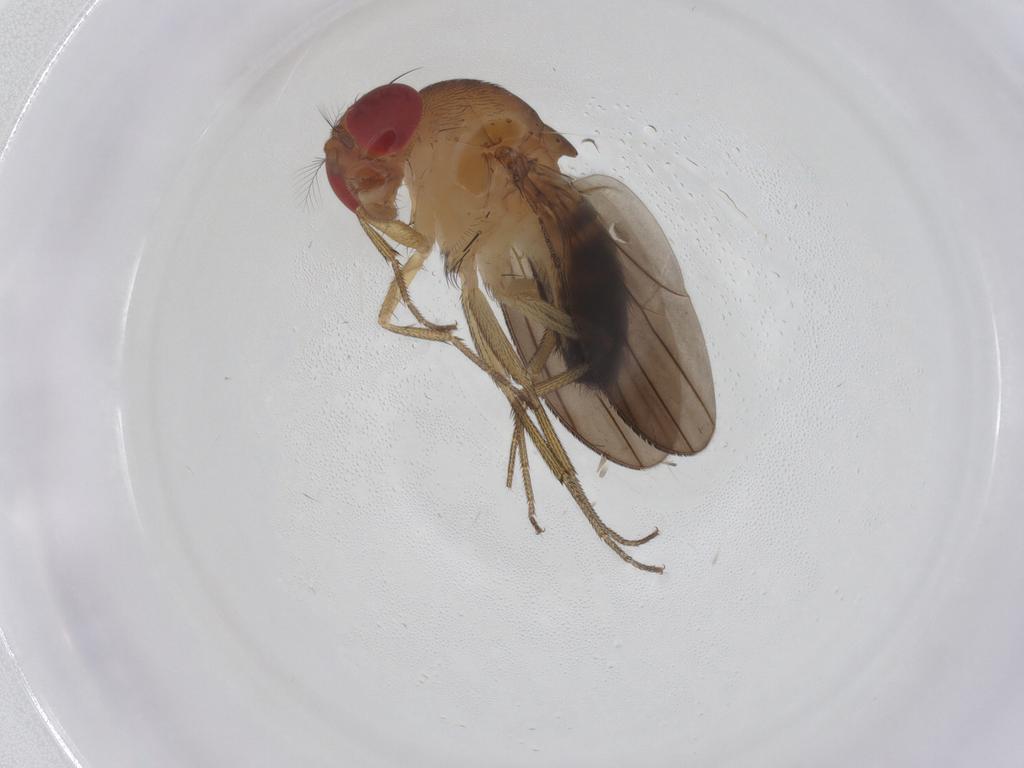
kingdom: Animalia
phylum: Arthropoda
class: Insecta
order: Diptera
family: Drosophilidae
